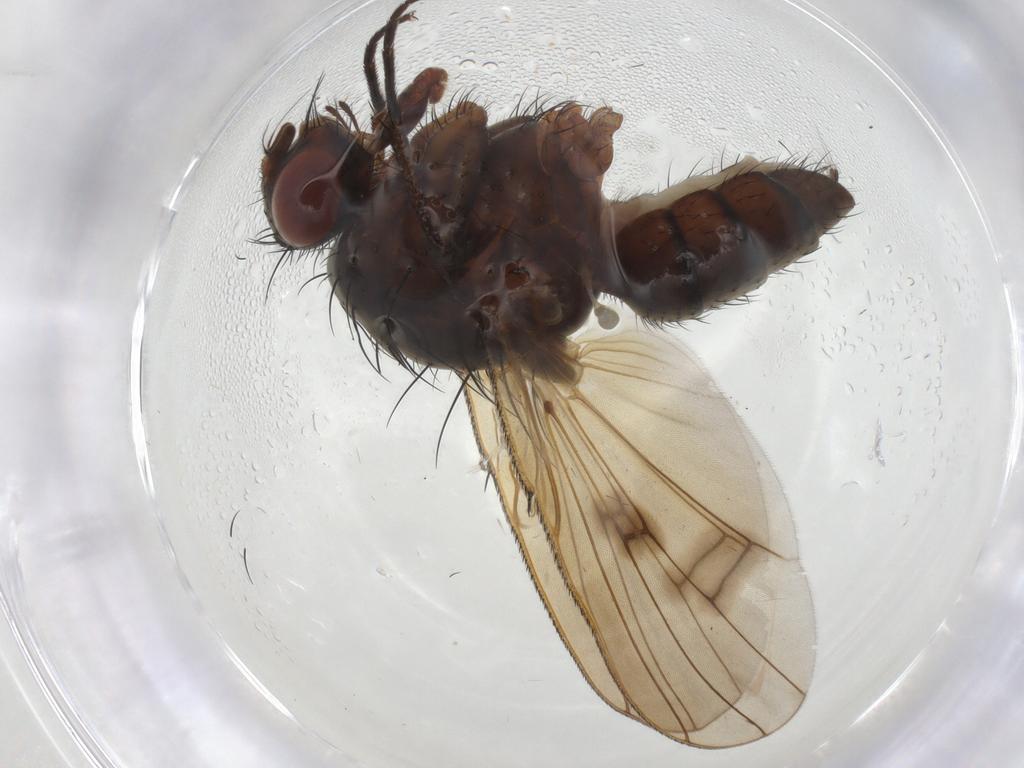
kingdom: Animalia
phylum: Arthropoda
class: Insecta
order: Diptera
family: Anthomyiidae
